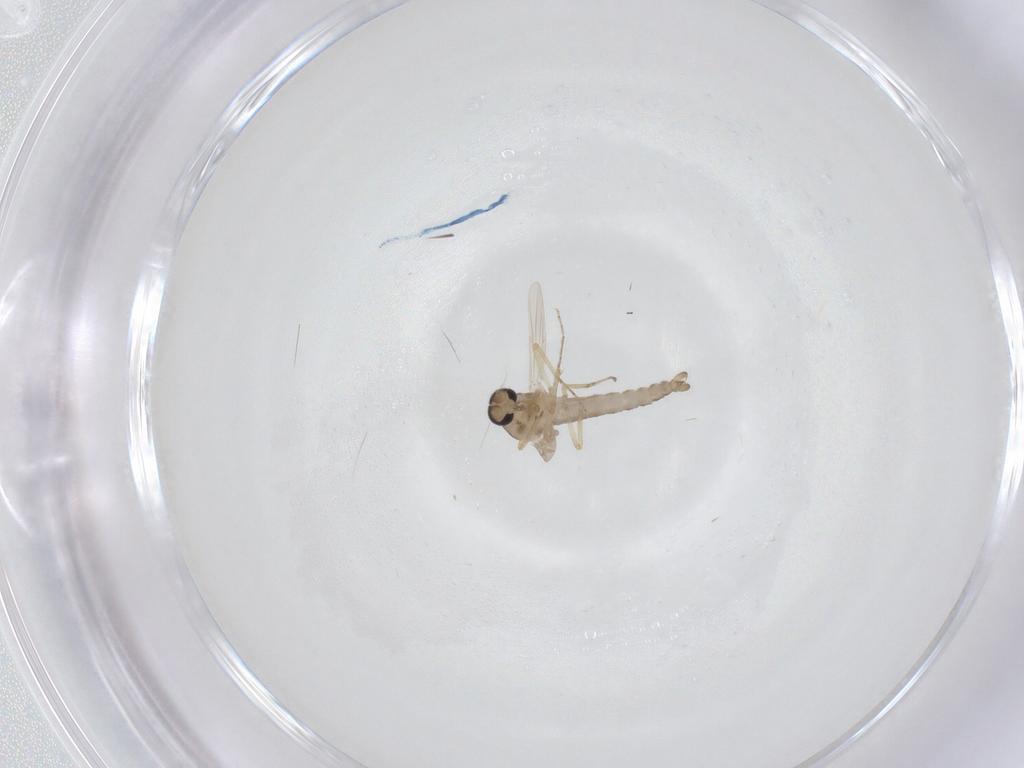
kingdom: Animalia
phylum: Arthropoda
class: Insecta
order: Diptera
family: Ceratopogonidae
